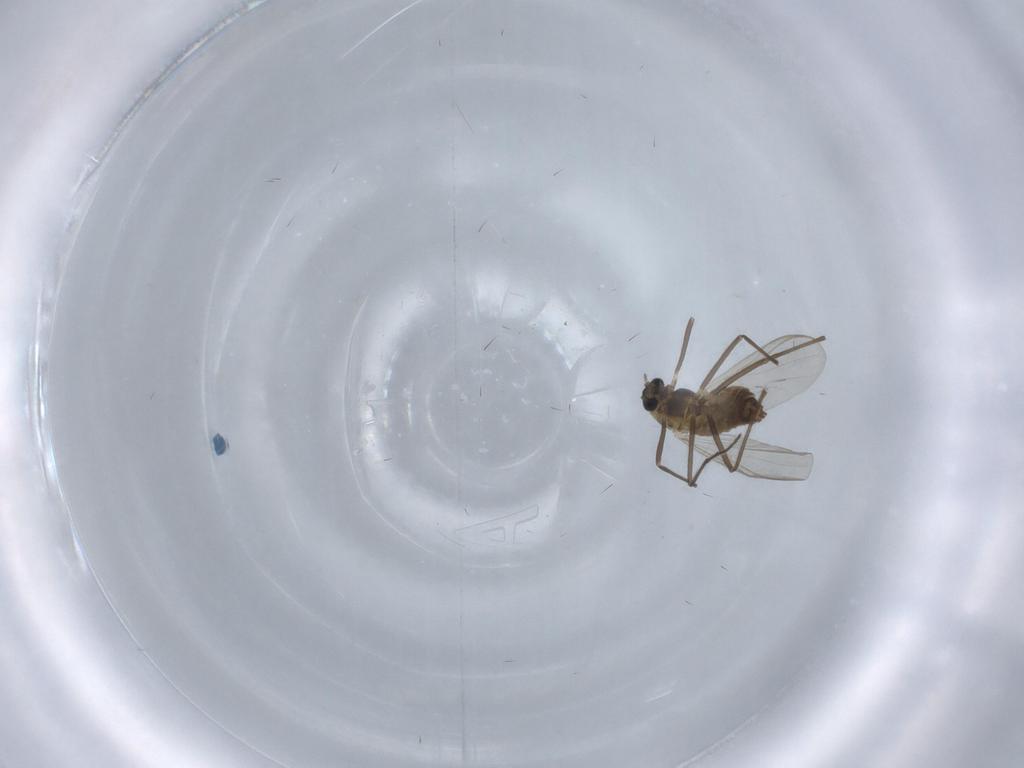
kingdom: Animalia
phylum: Arthropoda
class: Insecta
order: Diptera
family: Chironomidae
